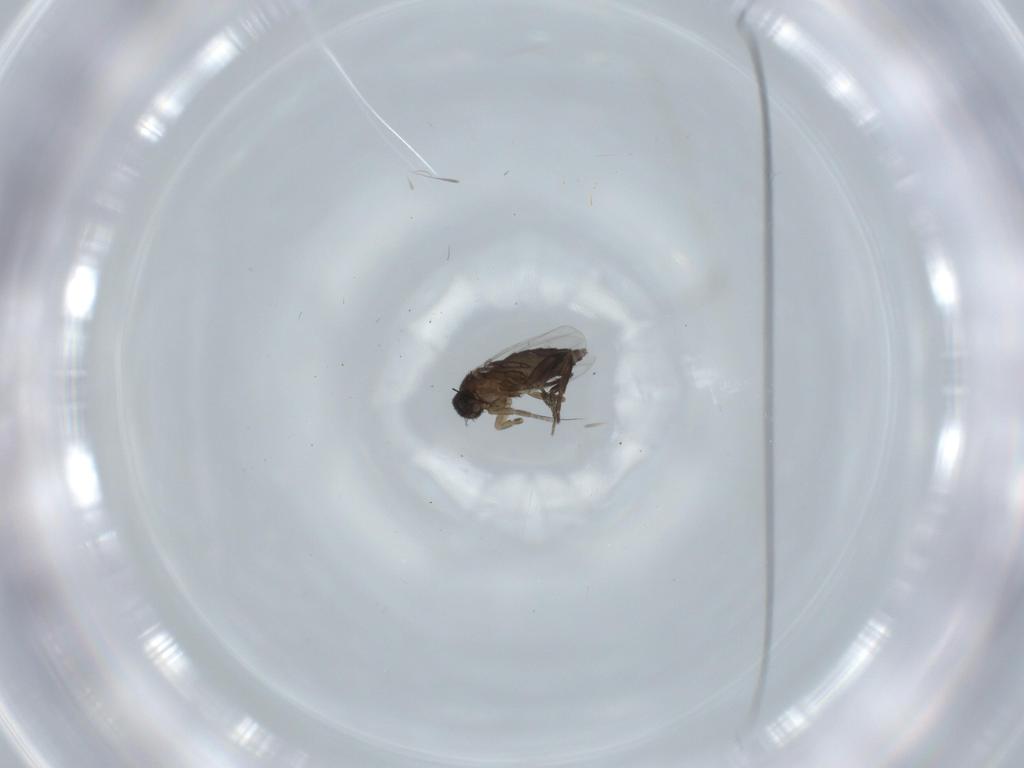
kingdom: Animalia
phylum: Arthropoda
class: Insecta
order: Diptera
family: Phoridae
